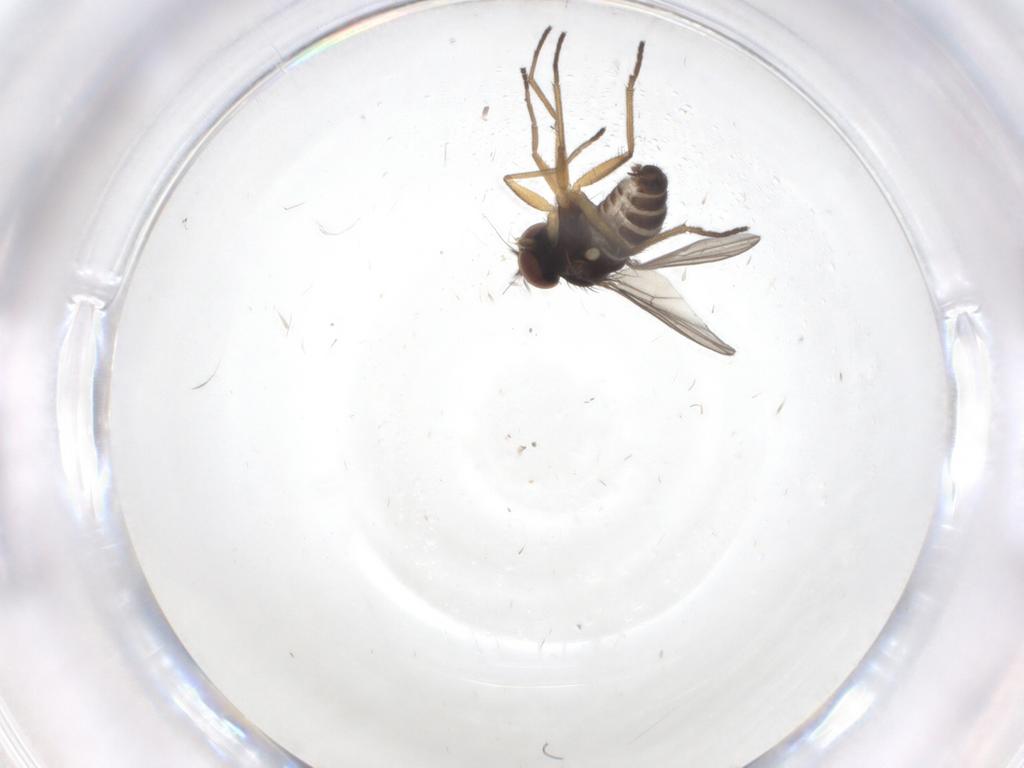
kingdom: Animalia
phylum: Arthropoda
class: Insecta
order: Diptera
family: Dolichopodidae
